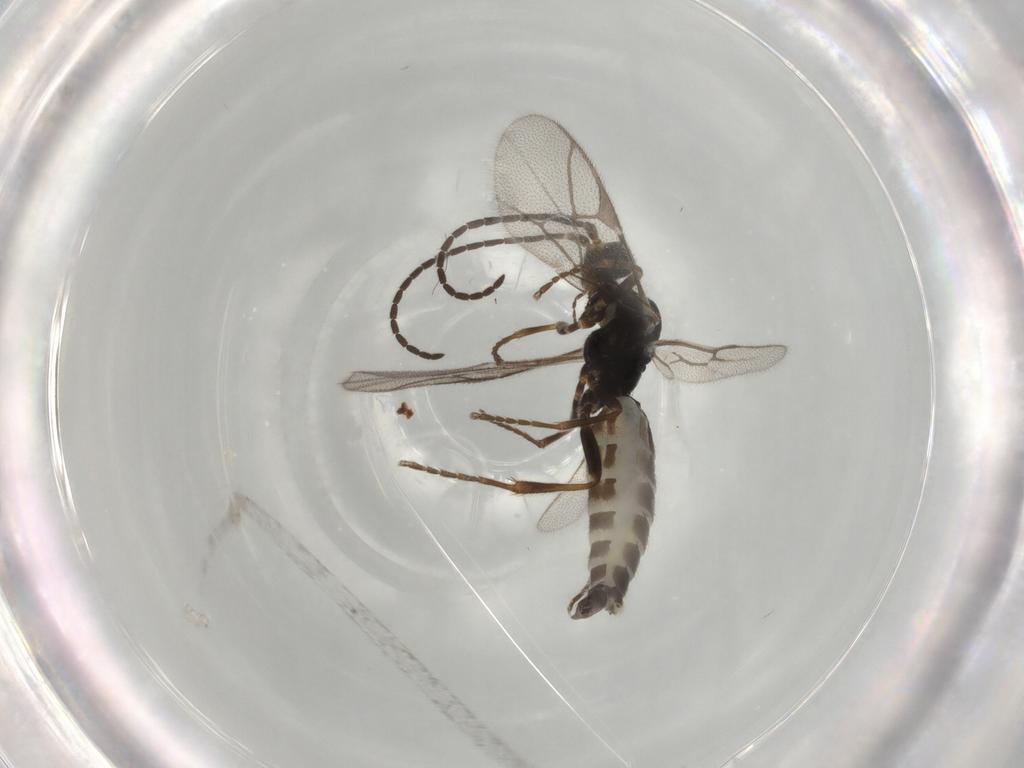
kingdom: Animalia
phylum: Arthropoda
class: Insecta
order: Hymenoptera
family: Ichneumonidae
